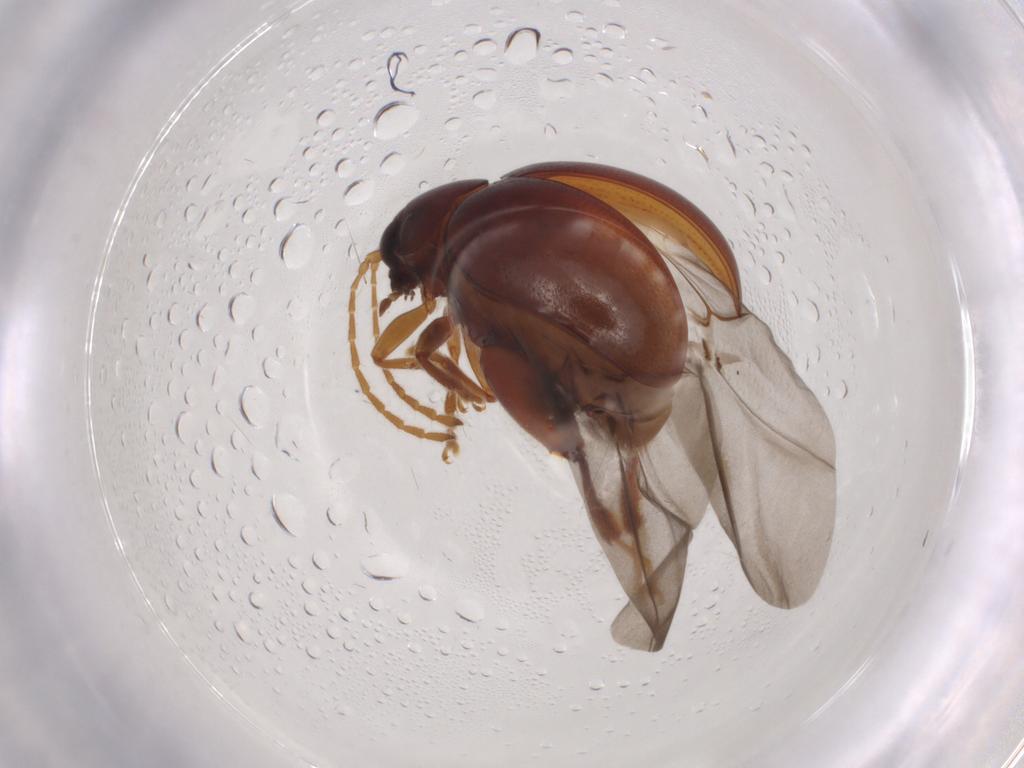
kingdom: Animalia
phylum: Arthropoda
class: Insecta
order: Coleoptera
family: Chrysomelidae
